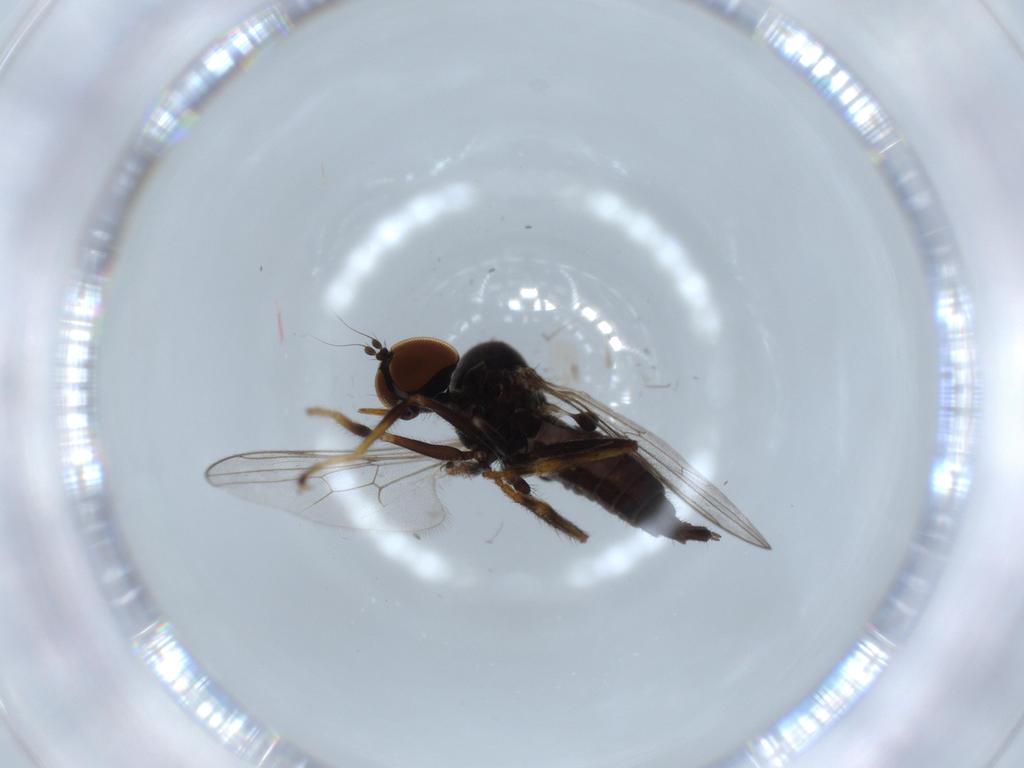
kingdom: Animalia
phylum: Arthropoda
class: Insecta
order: Diptera
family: Hybotidae
